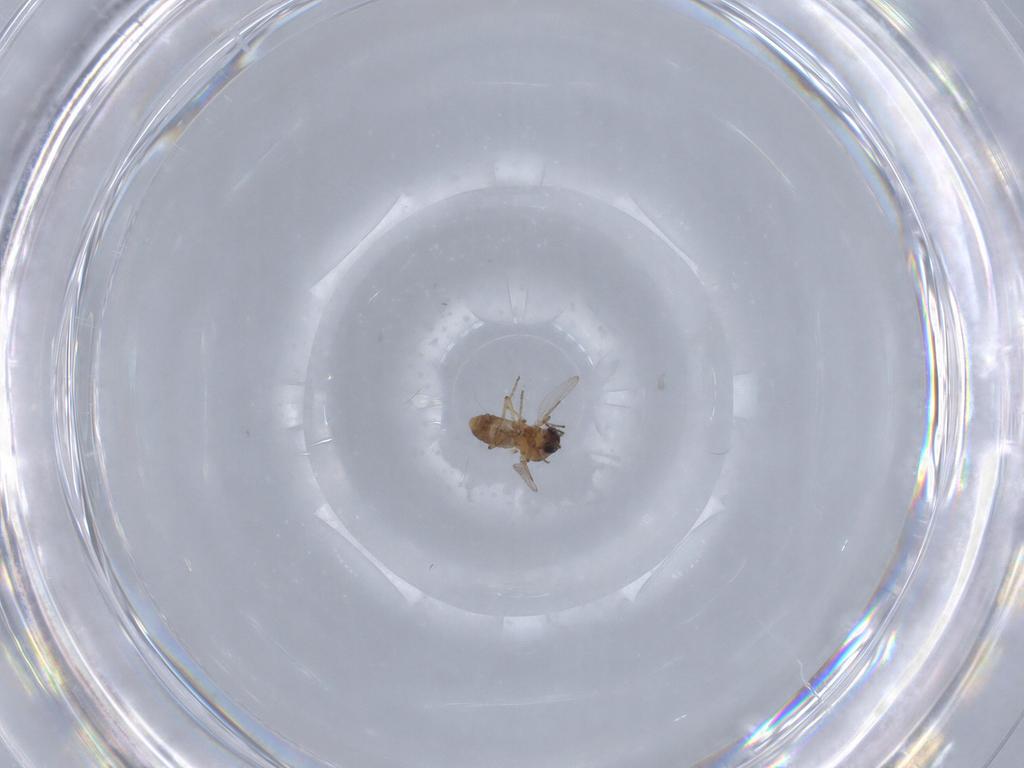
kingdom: Animalia
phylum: Arthropoda
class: Insecta
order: Diptera
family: Ceratopogonidae
